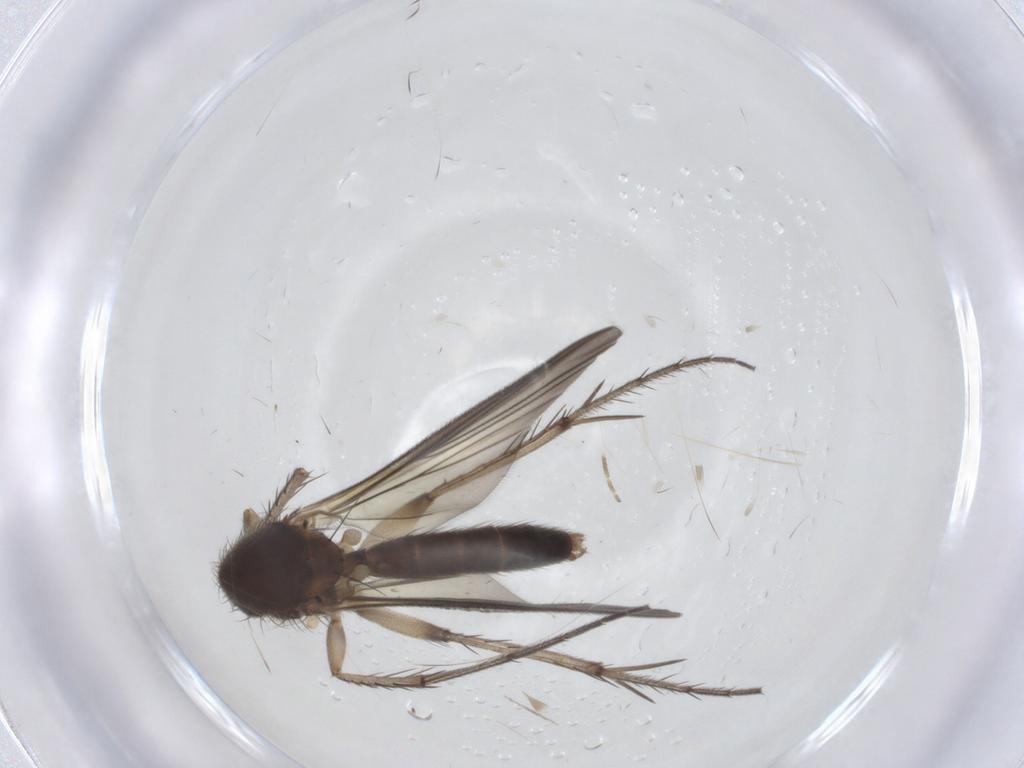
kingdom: Animalia
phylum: Arthropoda
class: Insecta
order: Diptera
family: Mycetophilidae
